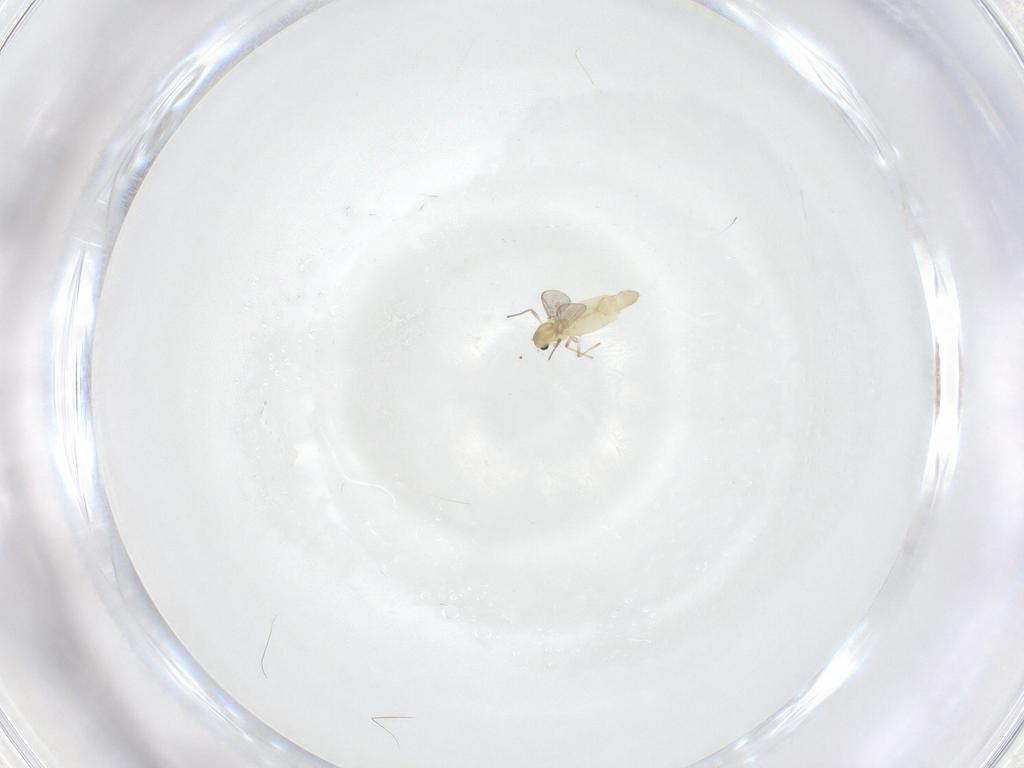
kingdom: Animalia
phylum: Arthropoda
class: Insecta
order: Diptera
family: Chironomidae
